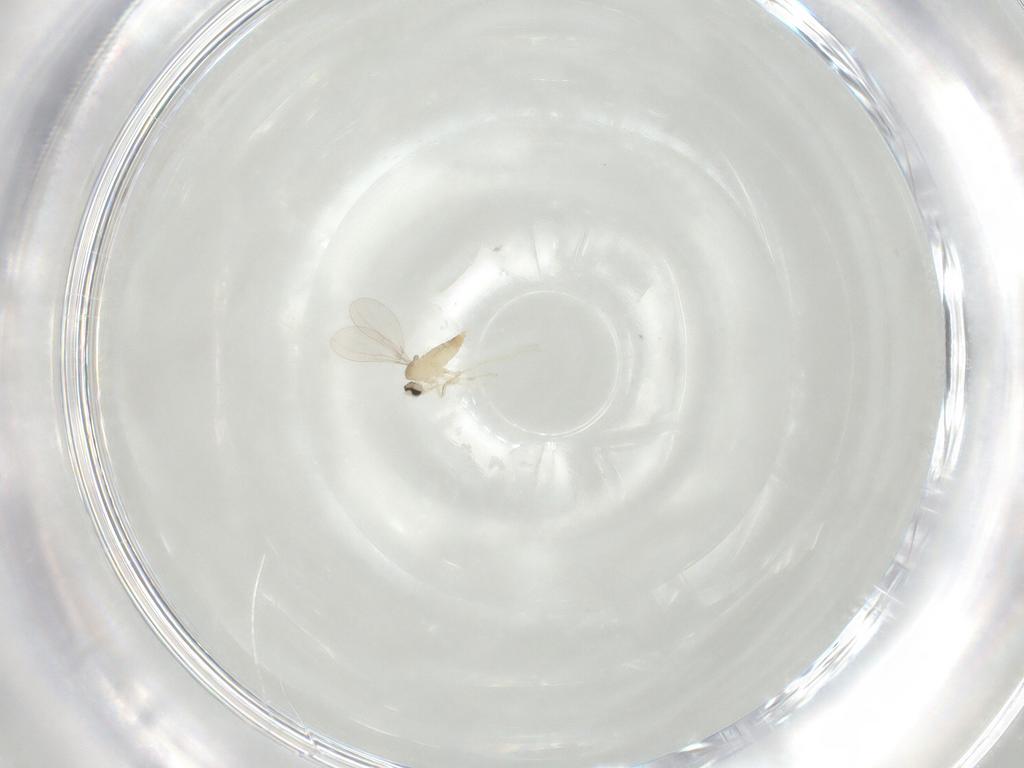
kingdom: Animalia
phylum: Arthropoda
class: Insecta
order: Diptera
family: Cecidomyiidae
